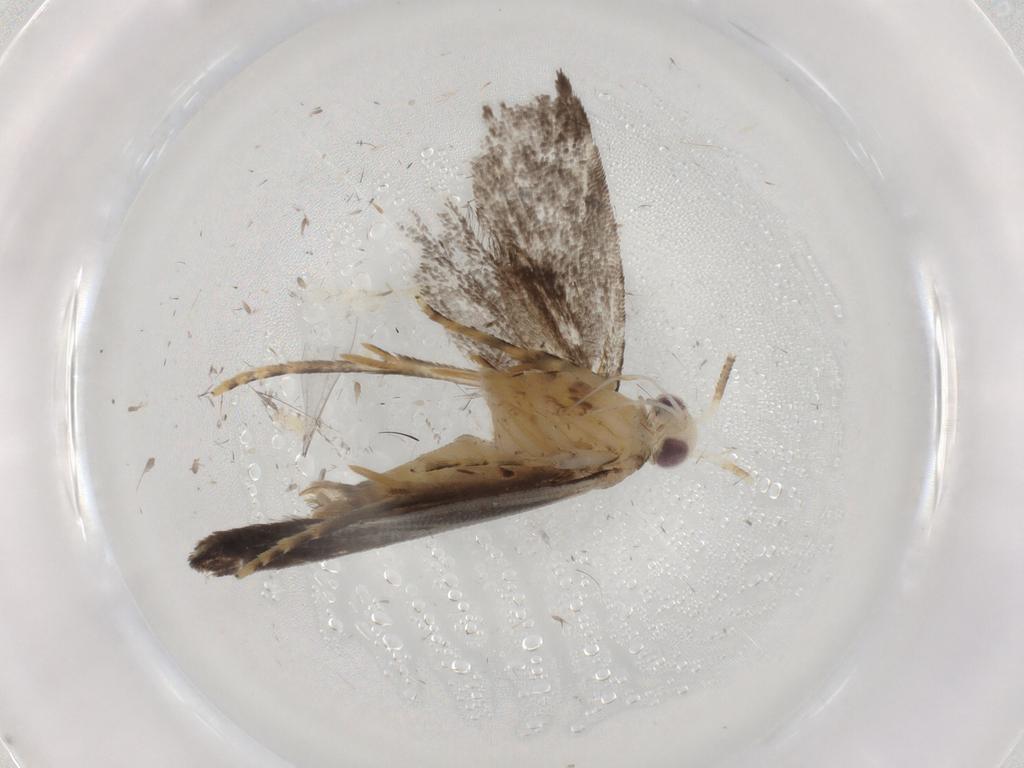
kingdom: Animalia
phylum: Arthropoda
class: Insecta
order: Lepidoptera
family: Gelechiidae
